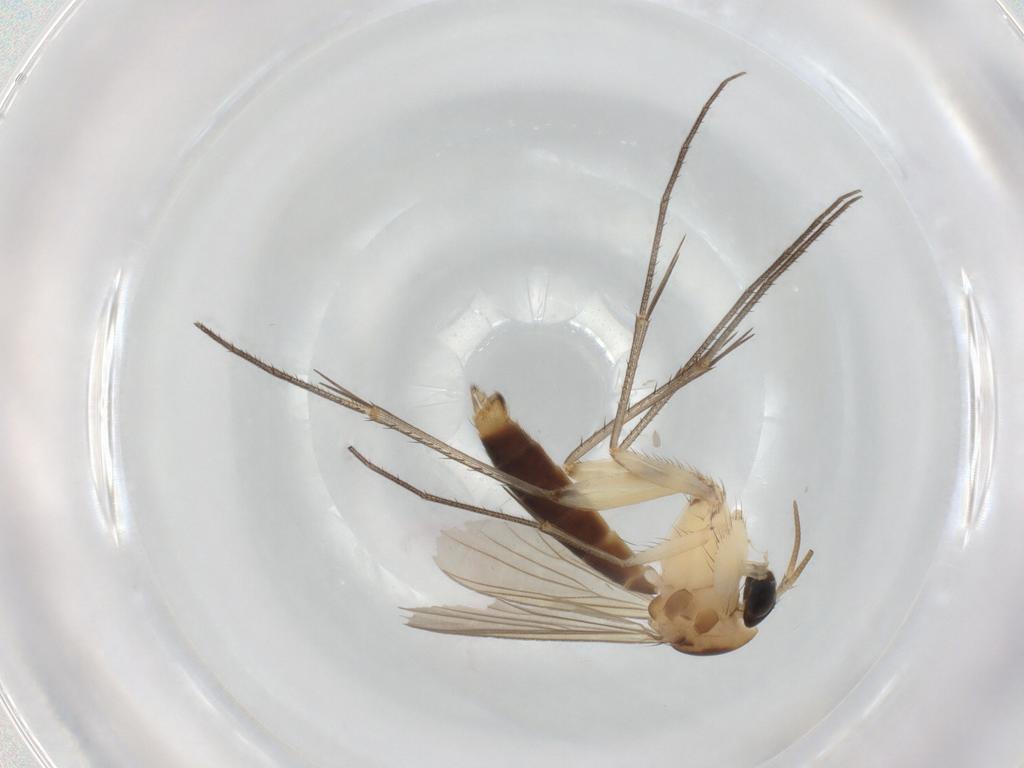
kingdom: Animalia
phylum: Arthropoda
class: Insecta
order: Diptera
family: Mycetophilidae
